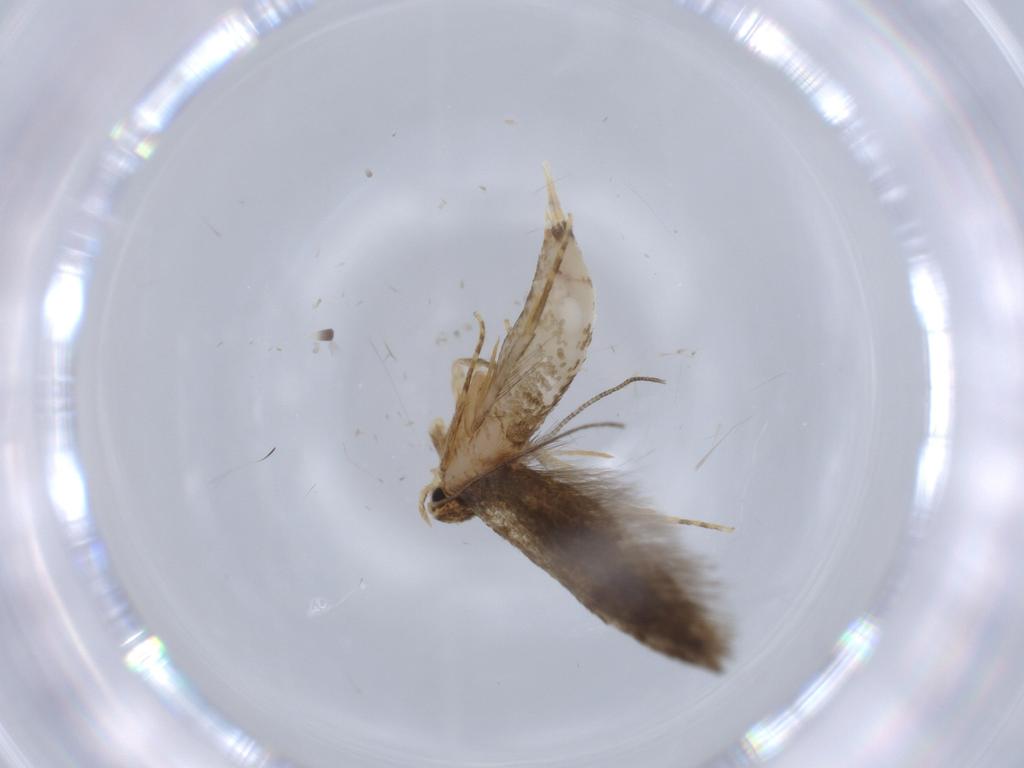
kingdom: Animalia
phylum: Arthropoda
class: Insecta
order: Lepidoptera
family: Tineidae
